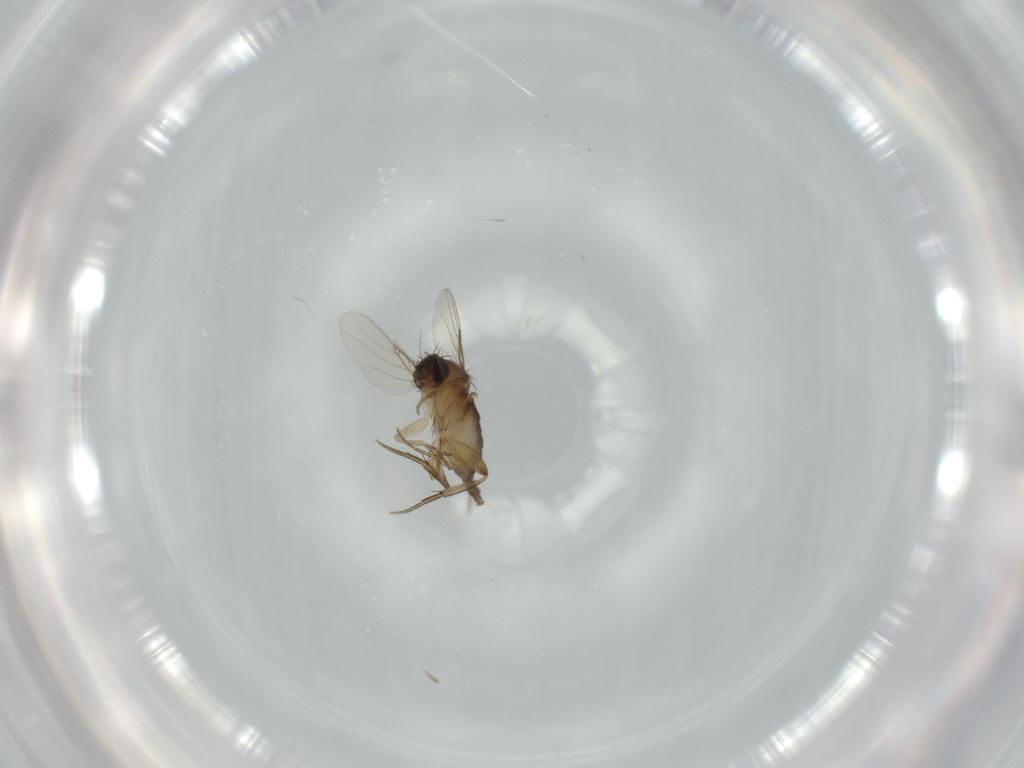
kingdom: Animalia
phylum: Arthropoda
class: Insecta
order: Diptera
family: Phoridae
